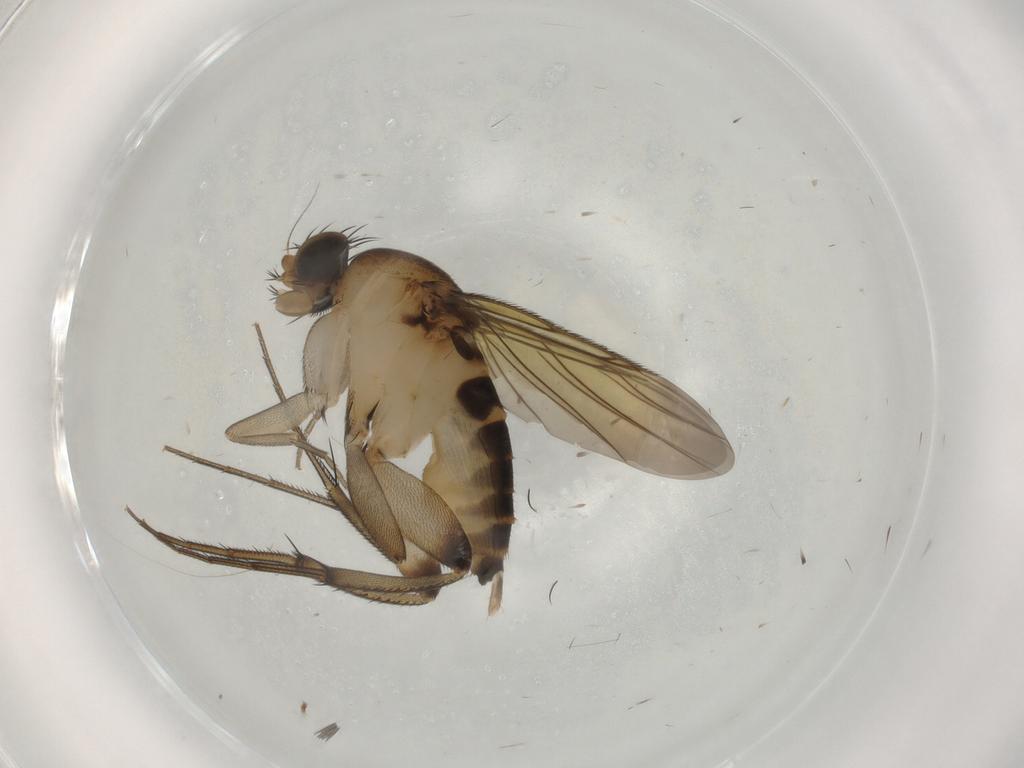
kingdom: Animalia
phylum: Arthropoda
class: Insecta
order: Diptera
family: Phoridae
